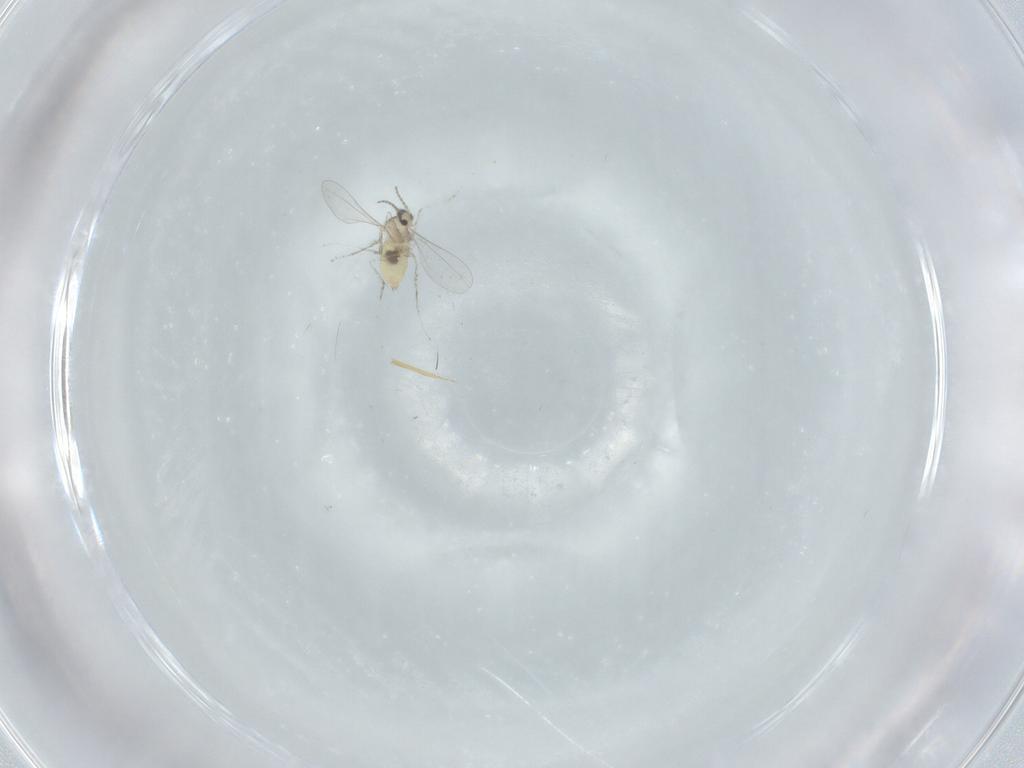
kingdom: Animalia
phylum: Arthropoda
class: Insecta
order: Diptera
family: Cecidomyiidae
